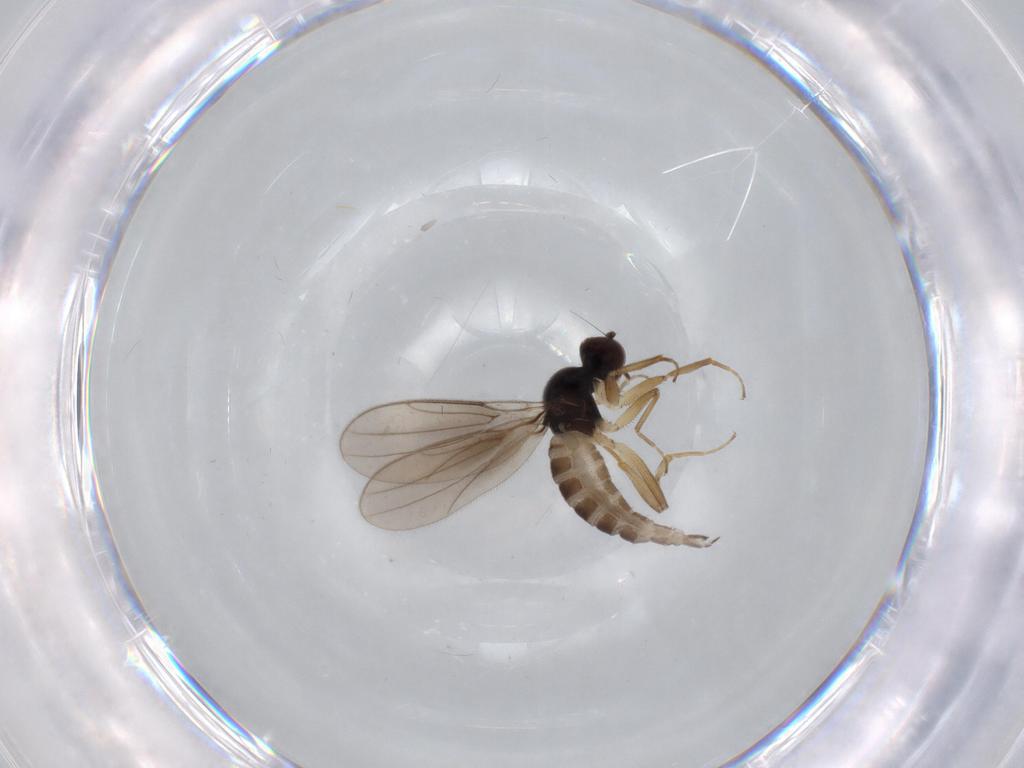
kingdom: Animalia
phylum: Arthropoda
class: Insecta
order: Diptera
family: Hybotidae
